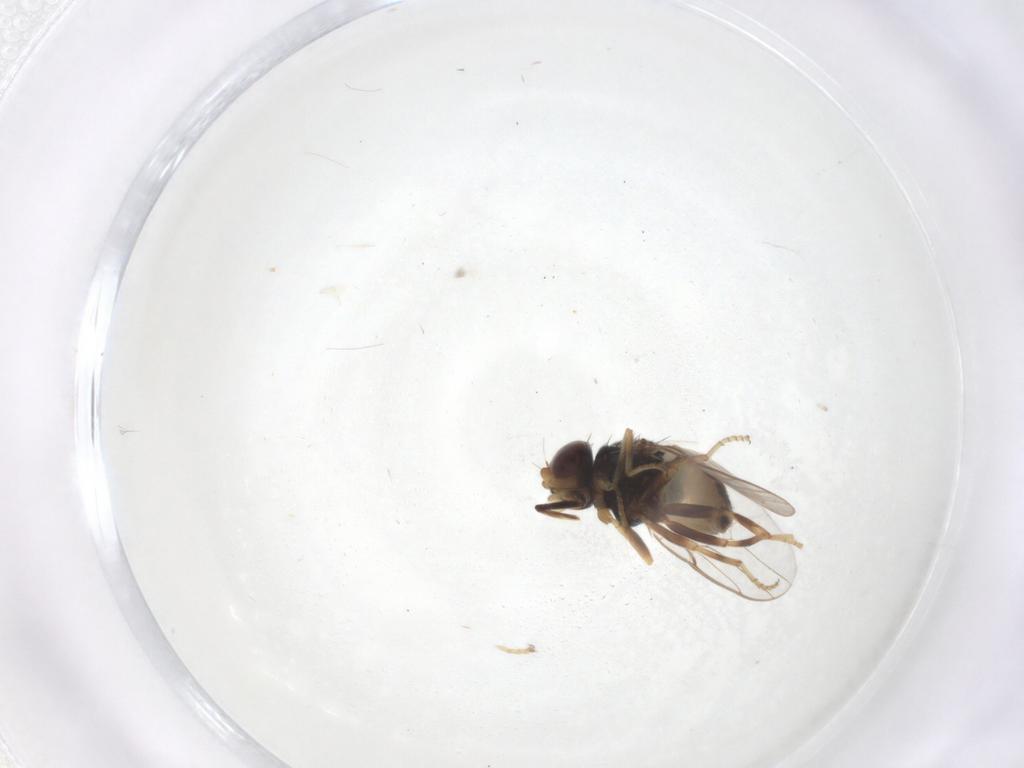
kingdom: Animalia
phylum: Arthropoda
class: Insecta
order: Diptera
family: Chloropidae
